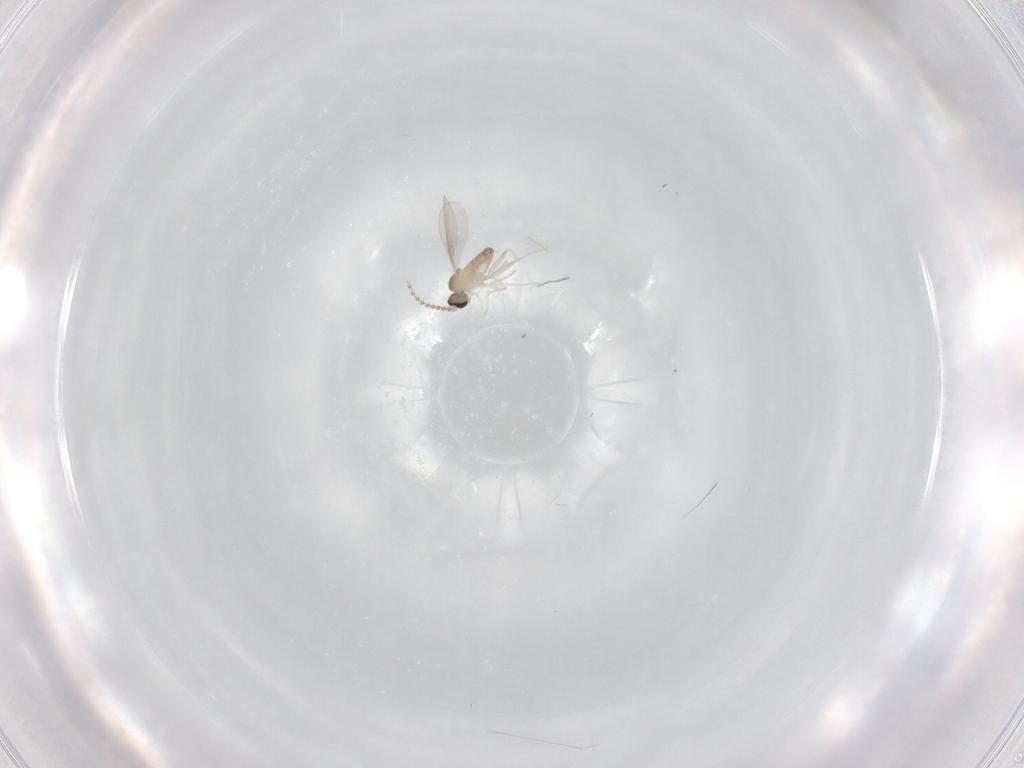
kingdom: Animalia
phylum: Arthropoda
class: Insecta
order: Diptera
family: Cecidomyiidae
